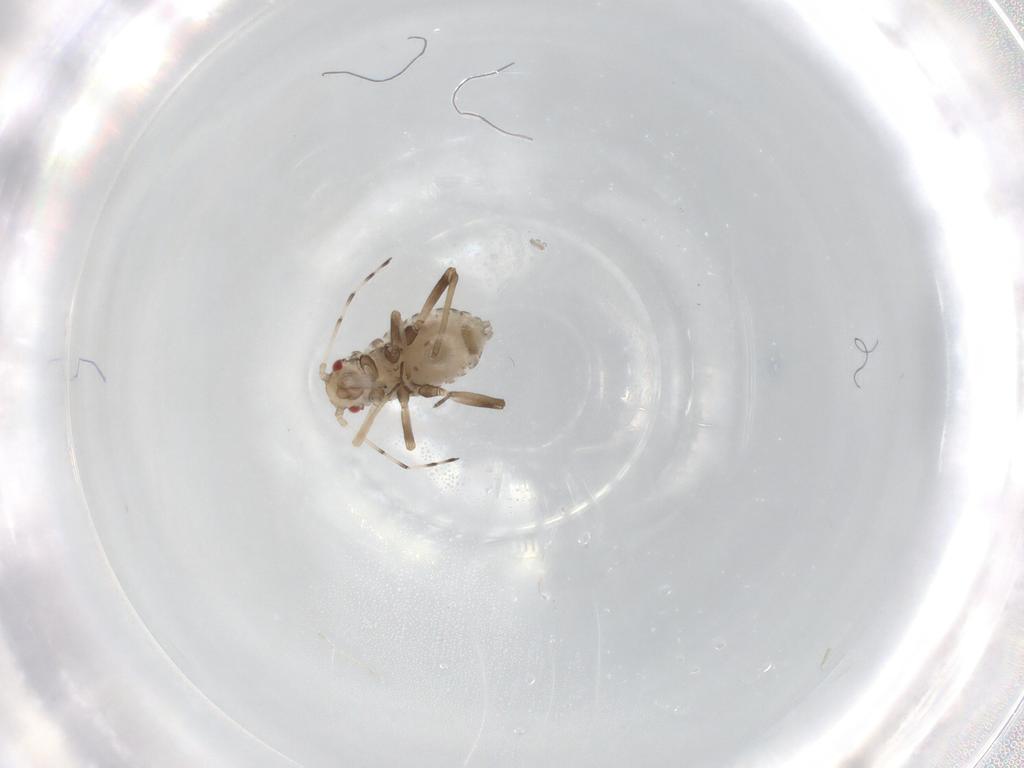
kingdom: Animalia
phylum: Arthropoda
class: Insecta
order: Hemiptera
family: Aphididae
